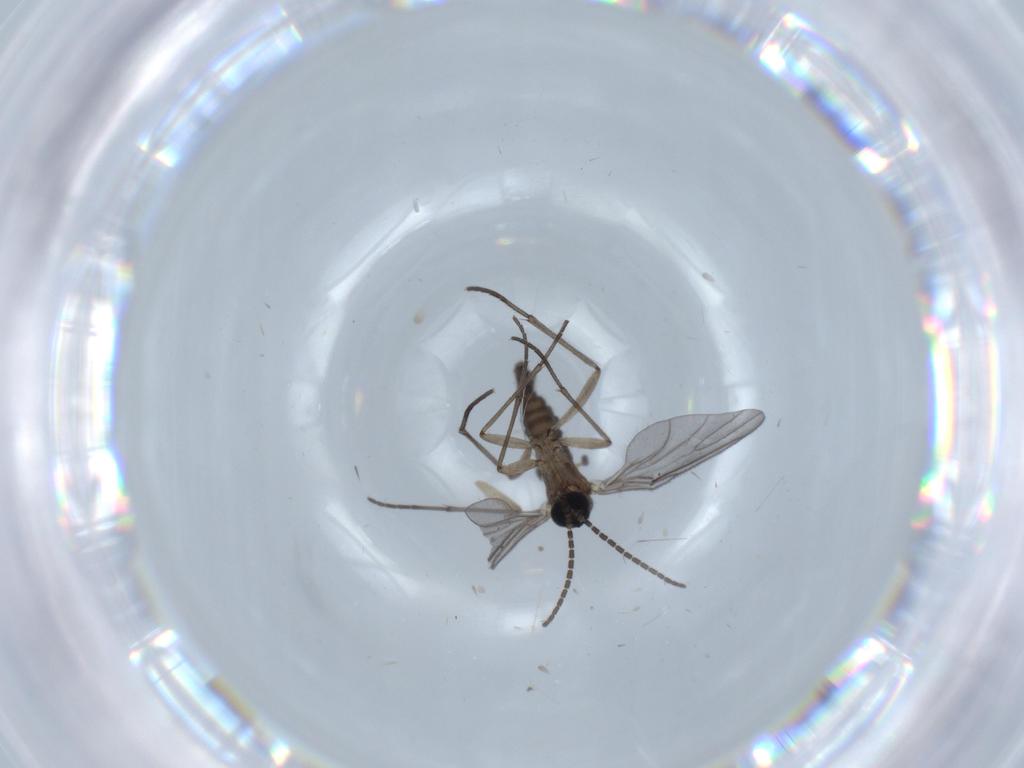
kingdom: Animalia
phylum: Arthropoda
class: Insecta
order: Diptera
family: Sciaridae
